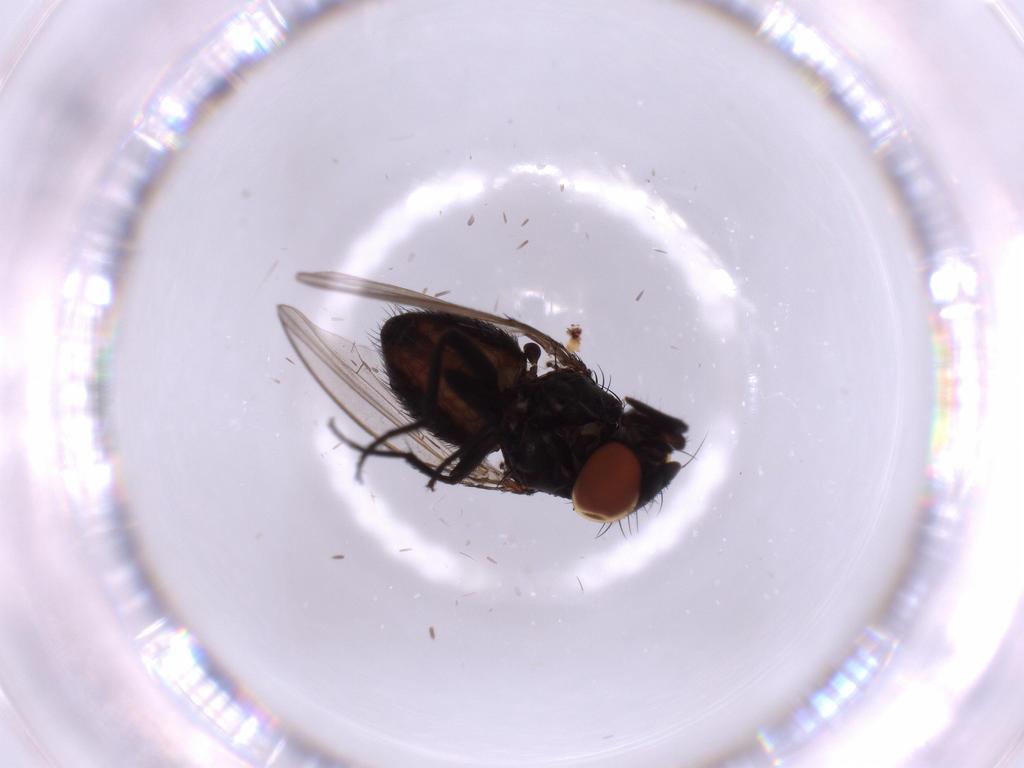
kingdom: Animalia
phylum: Arthropoda
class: Insecta
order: Diptera
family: Milichiidae
